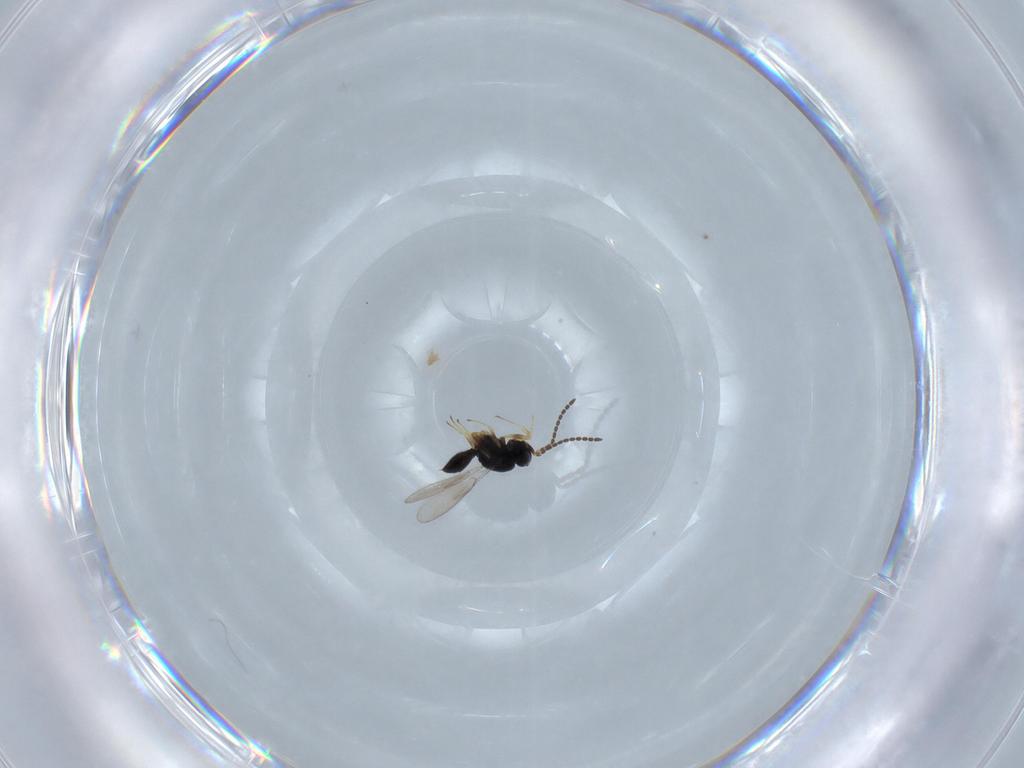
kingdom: Animalia
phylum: Arthropoda
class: Insecta
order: Hymenoptera
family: Scelionidae
